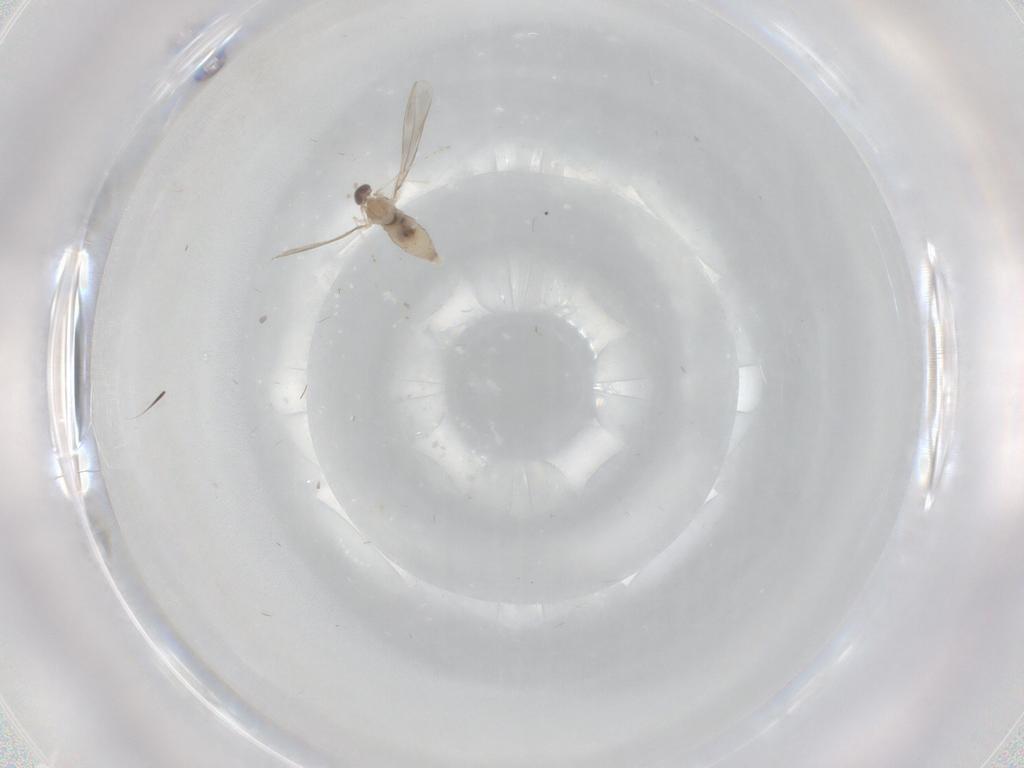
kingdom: Animalia
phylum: Arthropoda
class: Insecta
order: Diptera
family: Cecidomyiidae
